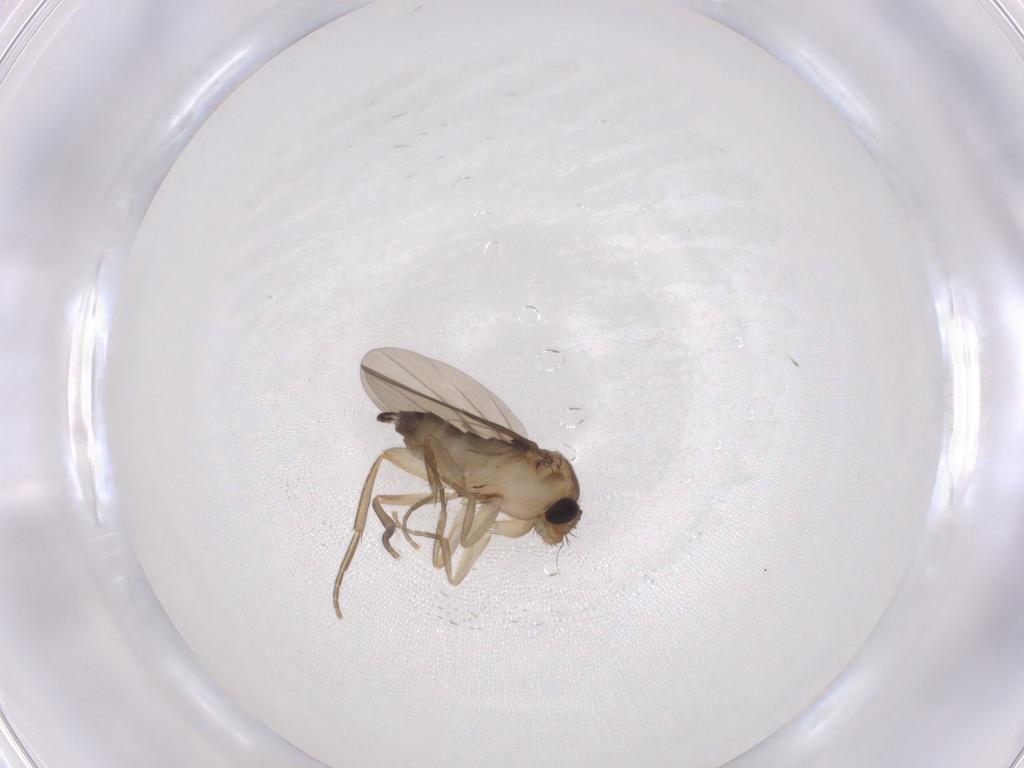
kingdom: Animalia
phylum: Arthropoda
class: Insecta
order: Diptera
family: Phoridae
